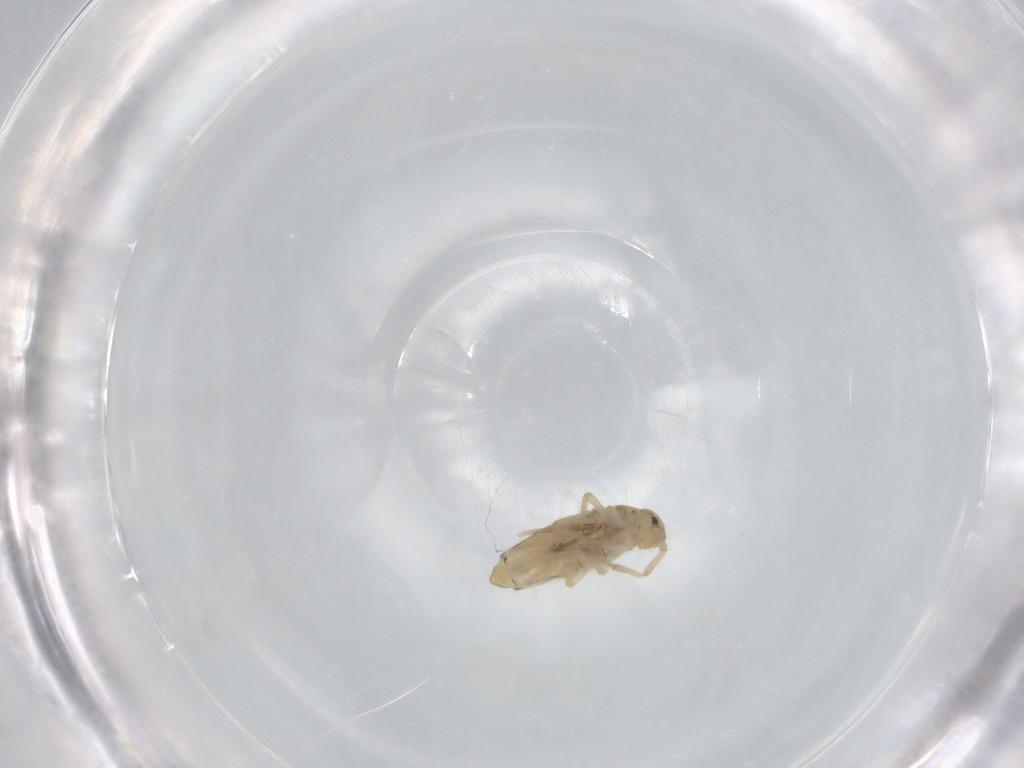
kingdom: Animalia
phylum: Arthropoda
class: Collembola
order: Entomobryomorpha
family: Entomobryidae
